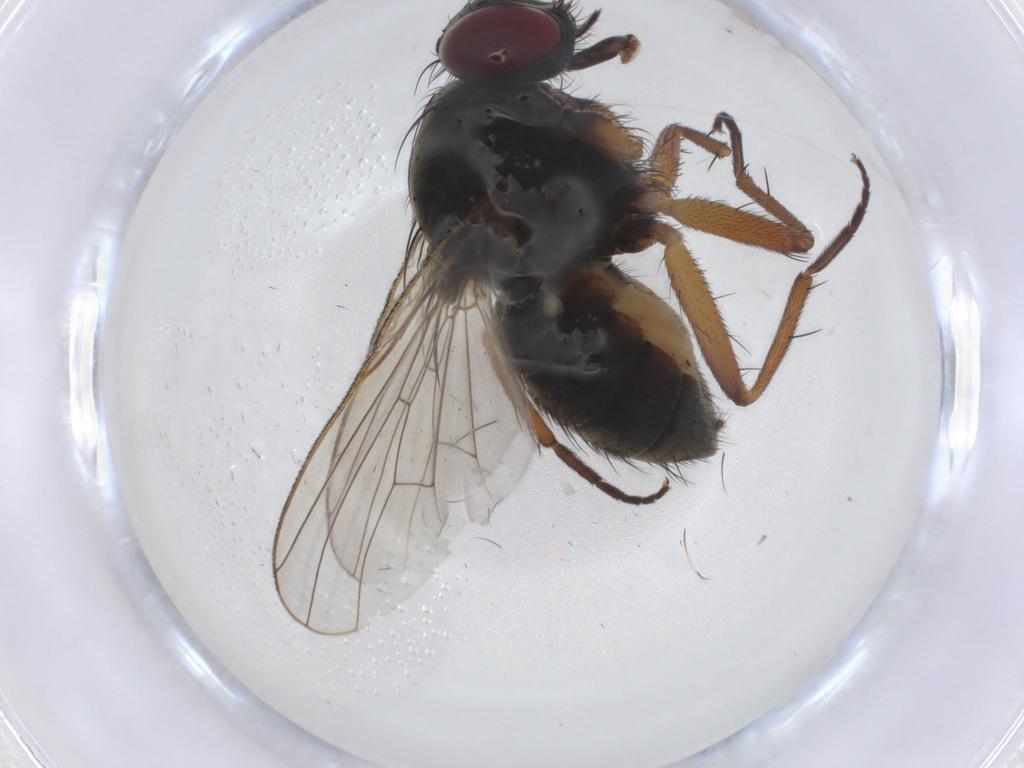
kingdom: Animalia
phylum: Arthropoda
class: Insecta
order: Diptera
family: Muscidae
